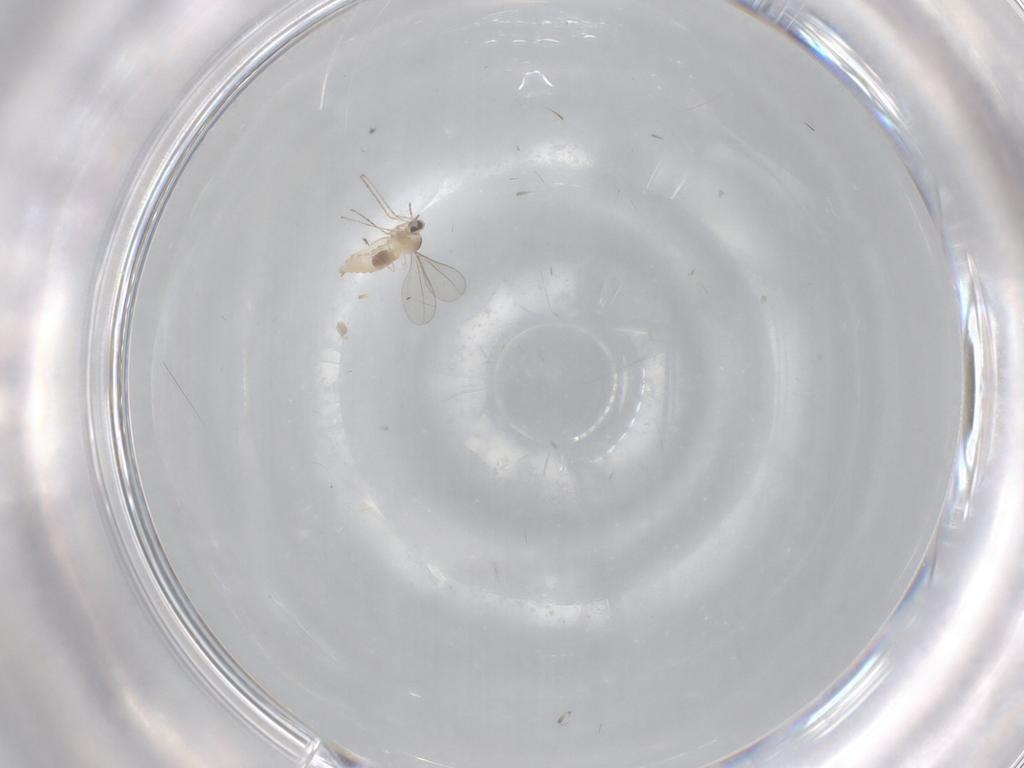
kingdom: Animalia
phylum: Arthropoda
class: Insecta
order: Diptera
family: Cecidomyiidae
